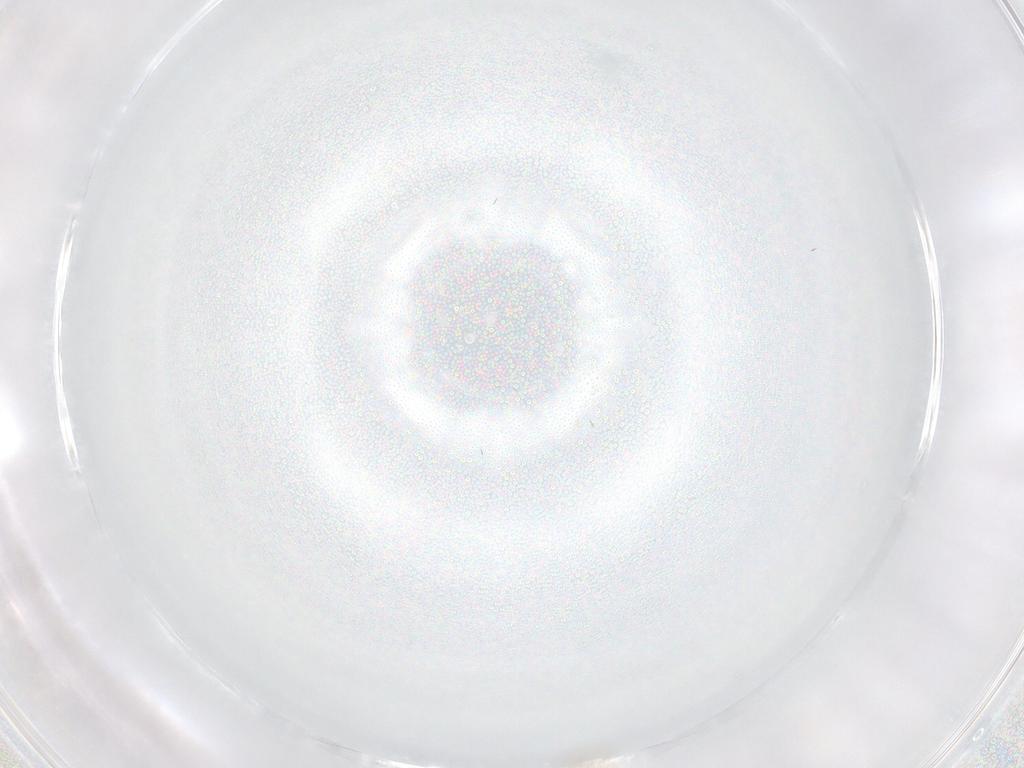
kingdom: Animalia
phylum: Arthropoda
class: Insecta
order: Diptera
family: Tabanidae
